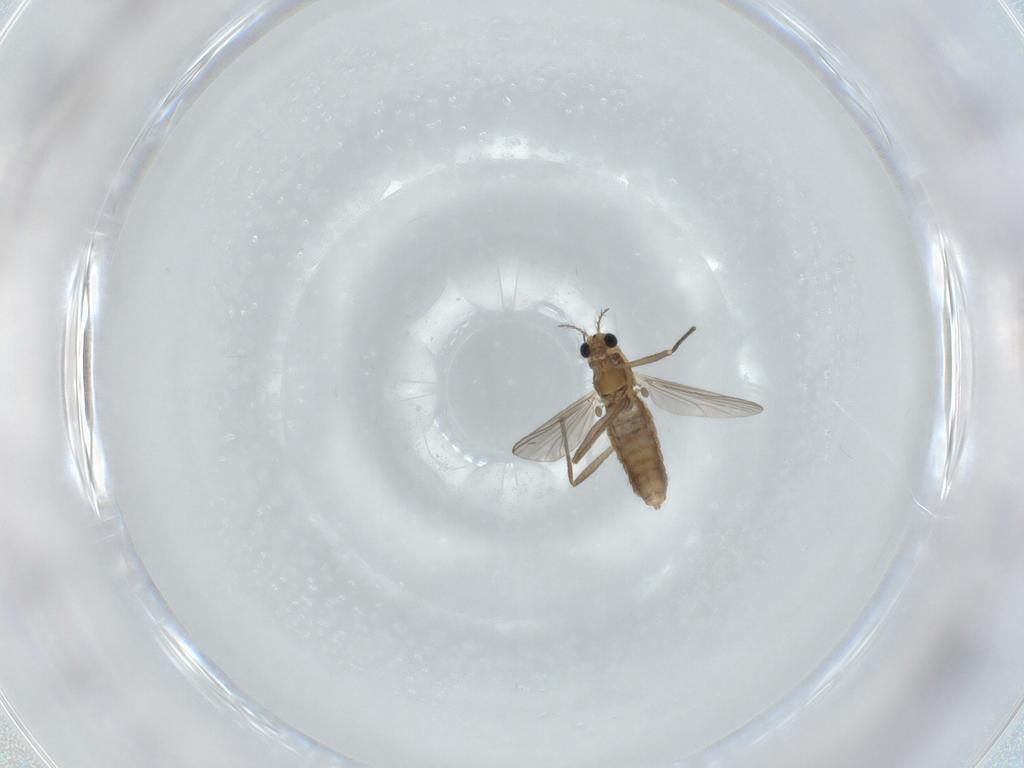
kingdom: Animalia
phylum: Arthropoda
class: Insecta
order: Diptera
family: Chironomidae
